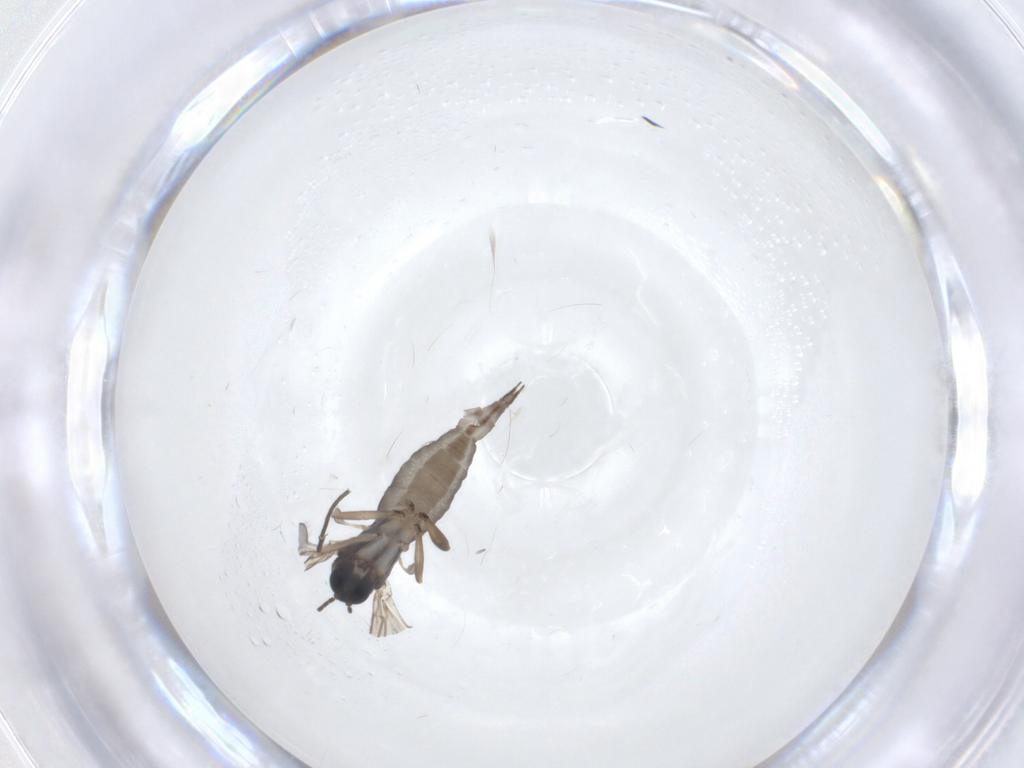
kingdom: Animalia
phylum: Arthropoda
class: Insecta
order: Diptera
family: Sciaridae
